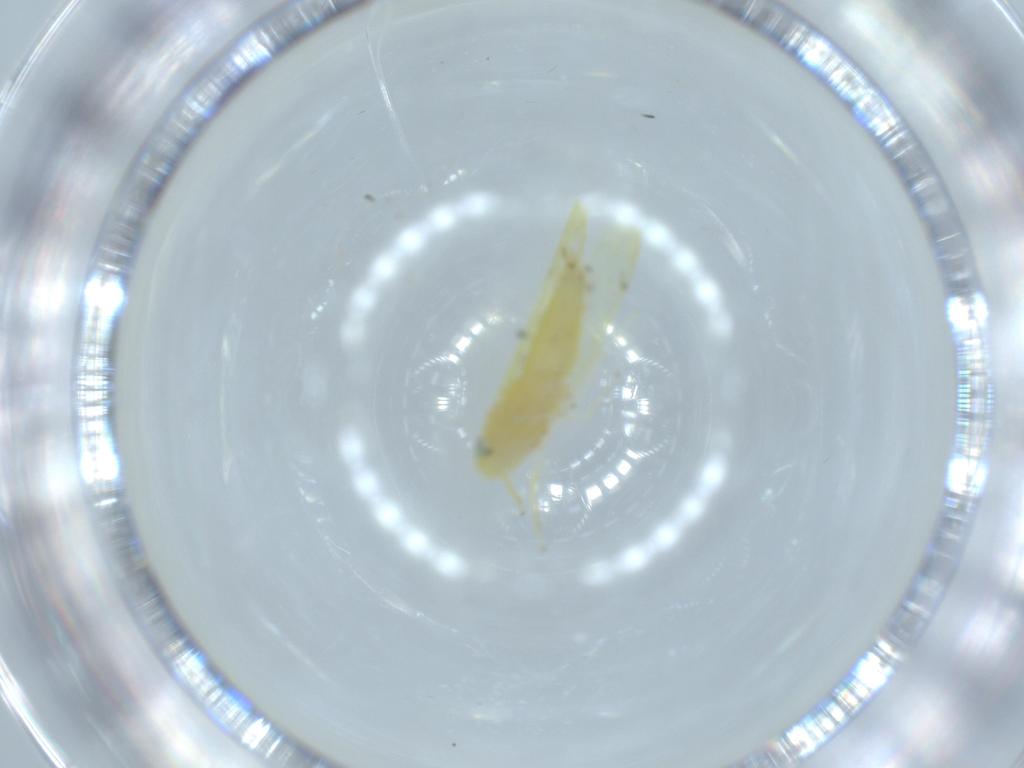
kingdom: Animalia
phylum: Arthropoda
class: Insecta
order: Hemiptera
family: Cicadellidae
